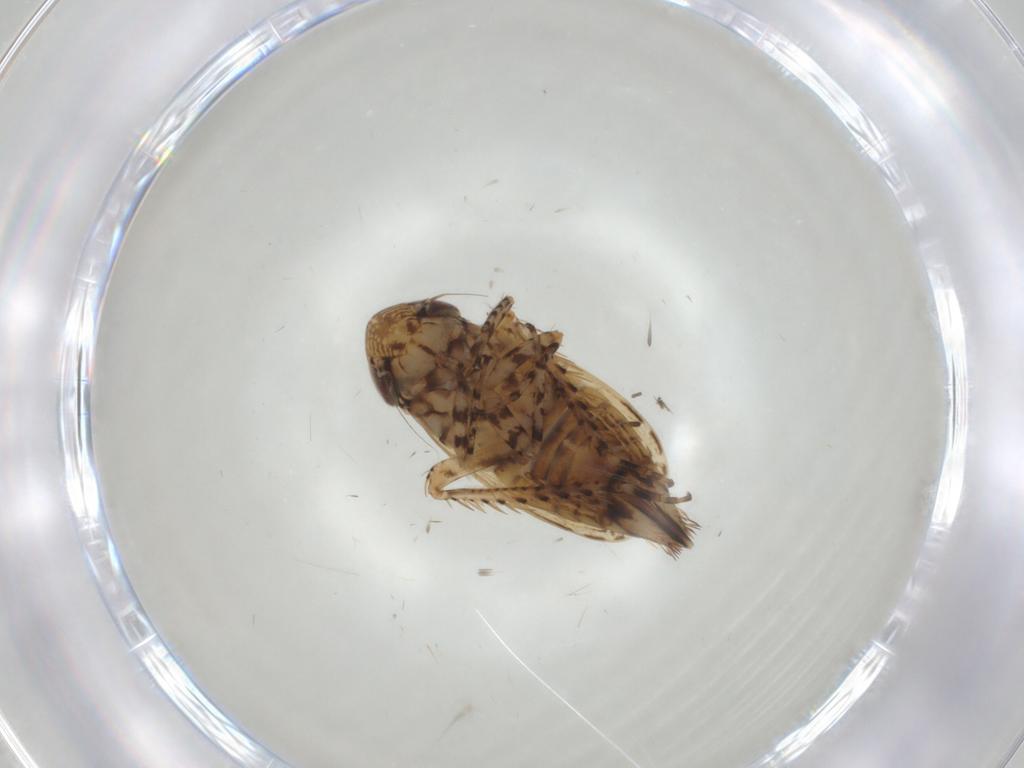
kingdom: Animalia
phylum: Arthropoda
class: Insecta
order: Hemiptera
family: Cicadellidae
